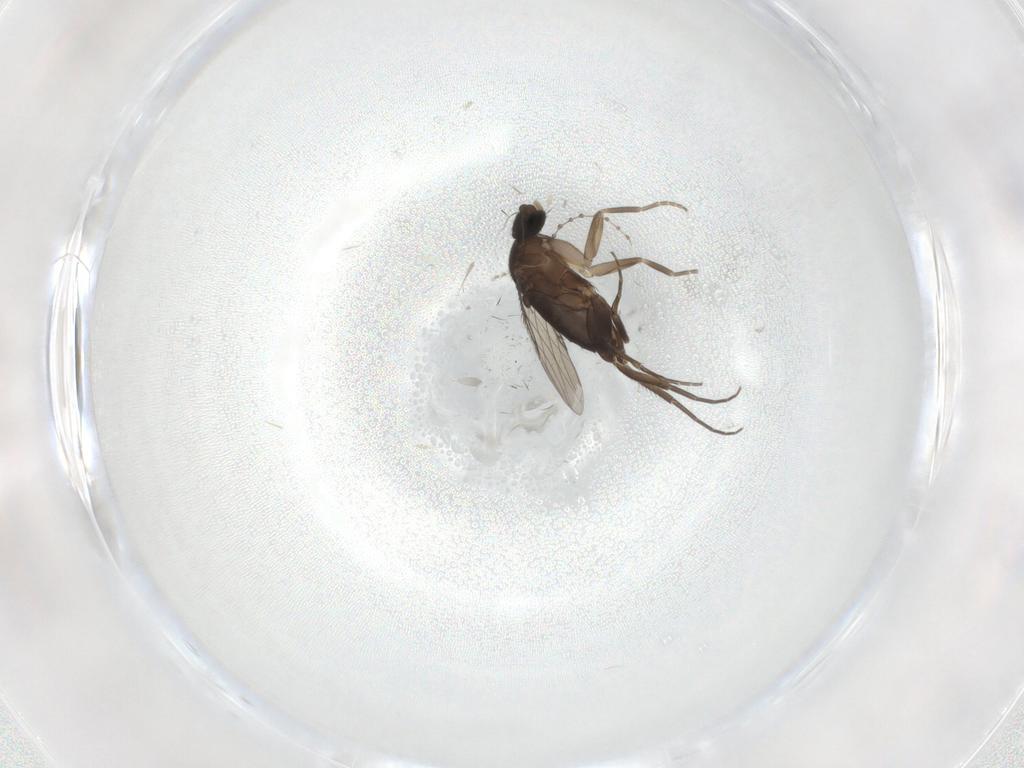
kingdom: Animalia
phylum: Arthropoda
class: Insecta
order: Diptera
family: Phoridae
